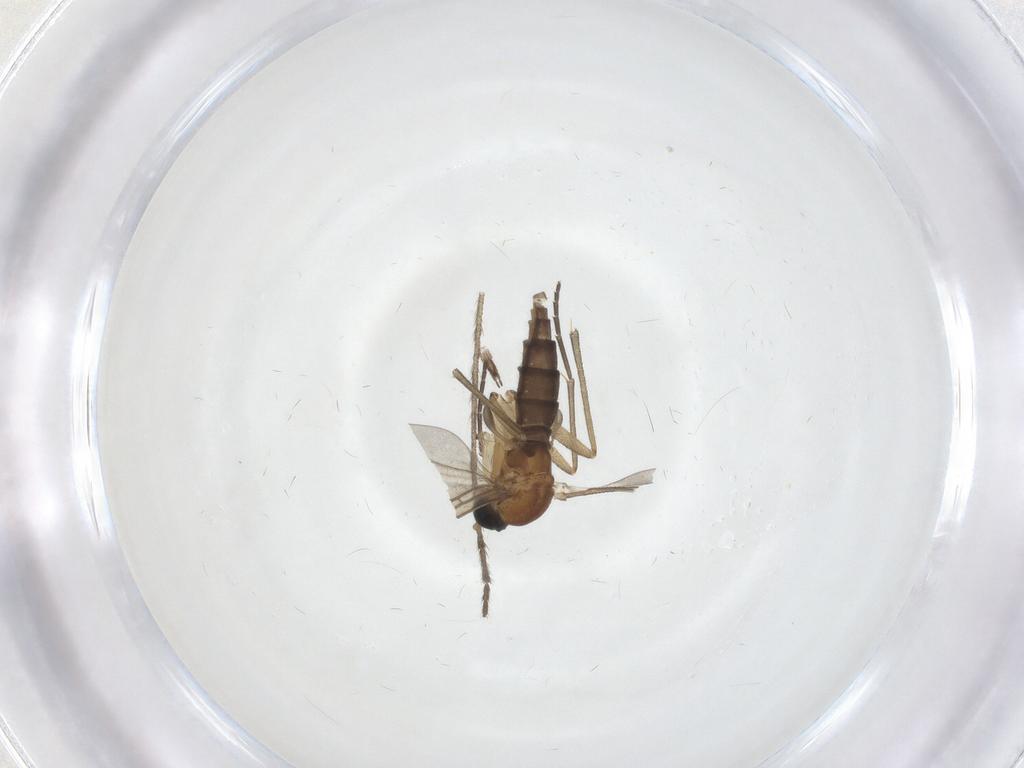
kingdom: Animalia
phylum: Arthropoda
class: Insecta
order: Diptera
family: Sciaridae
